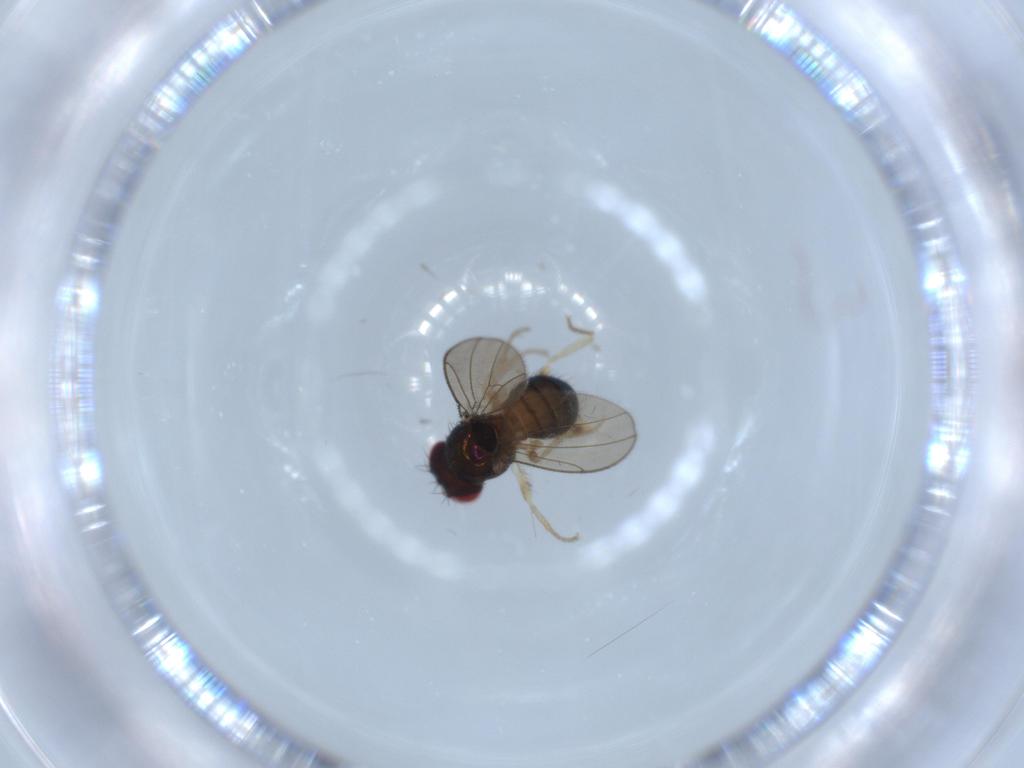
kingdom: Animalia
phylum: Arthropoda
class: Insecta
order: Diptera
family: Drosophilidae
